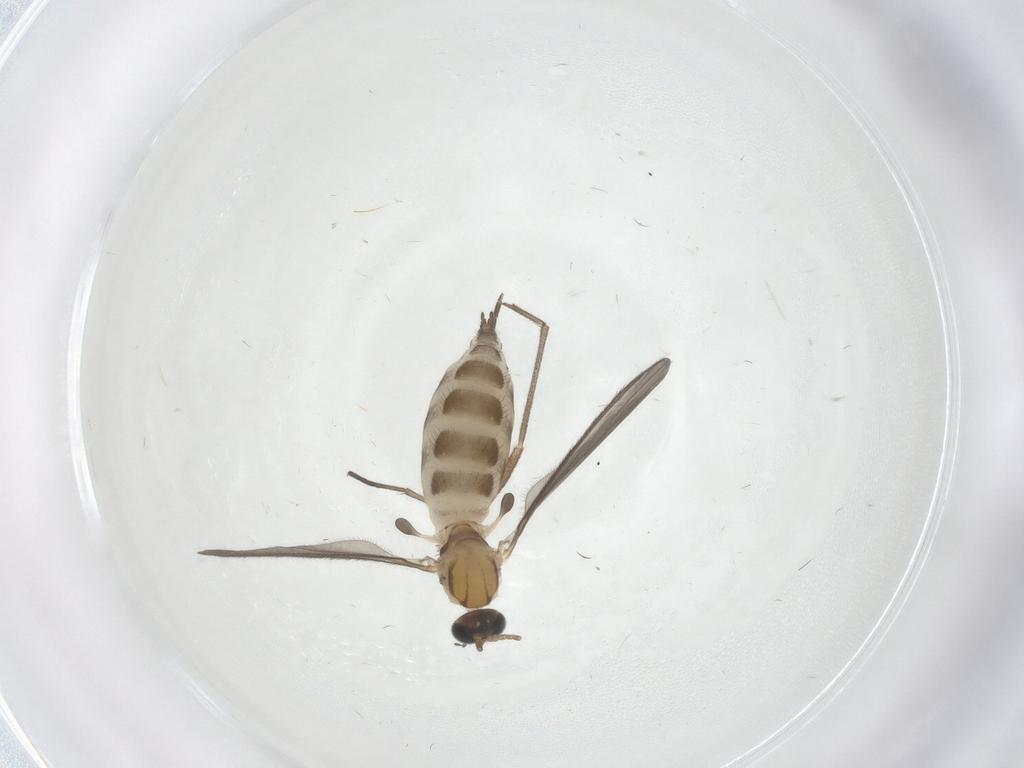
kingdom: Animalia
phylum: Arthropoda
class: Insecta
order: Diptera
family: Sciaridae
